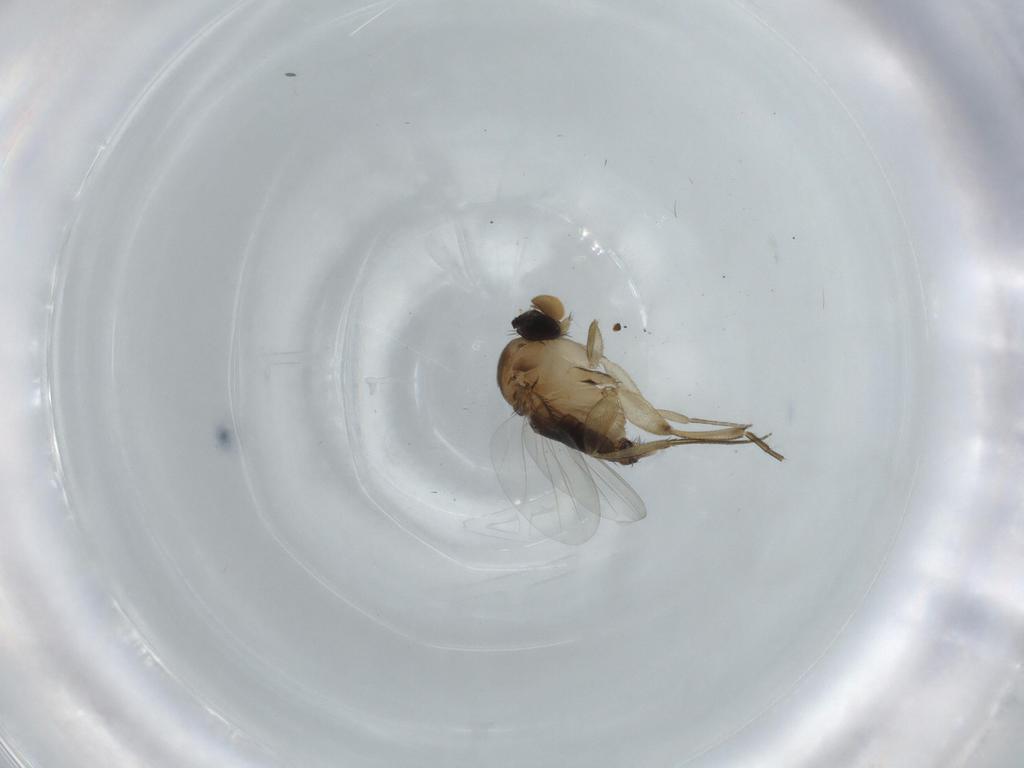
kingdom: Animalia
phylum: Arthropoda
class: Insecta
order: Diptera
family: Phoridae
